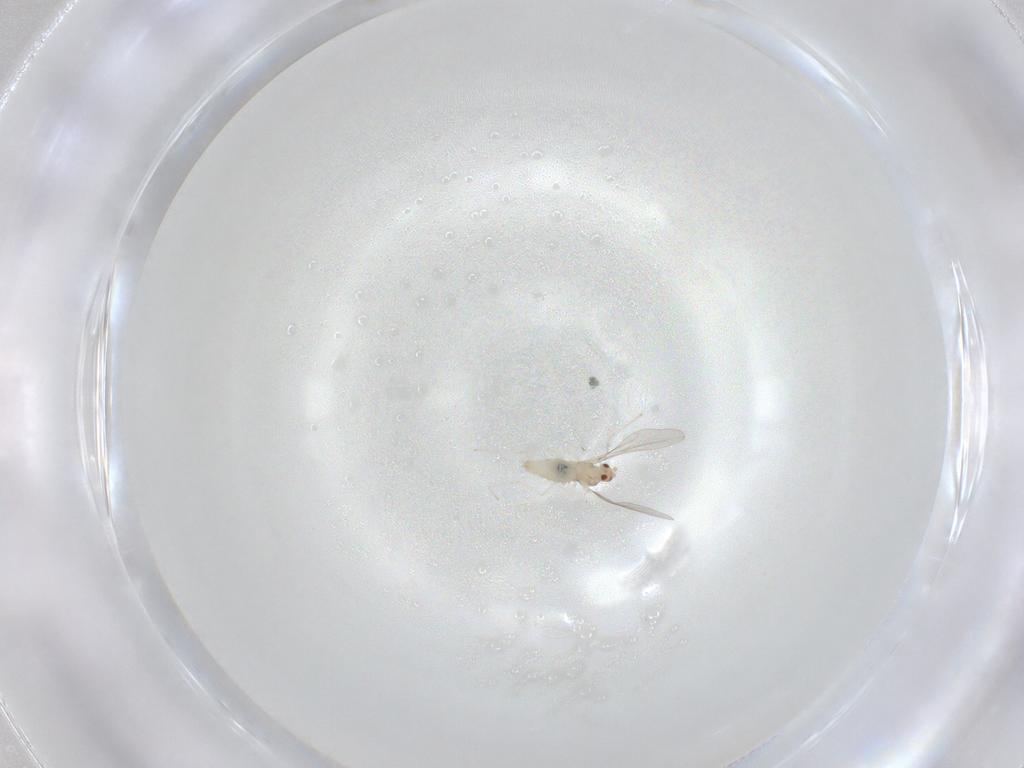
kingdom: Animalia
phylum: Arthropoda
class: Insecta
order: Diptera
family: Cecidomyiidae
